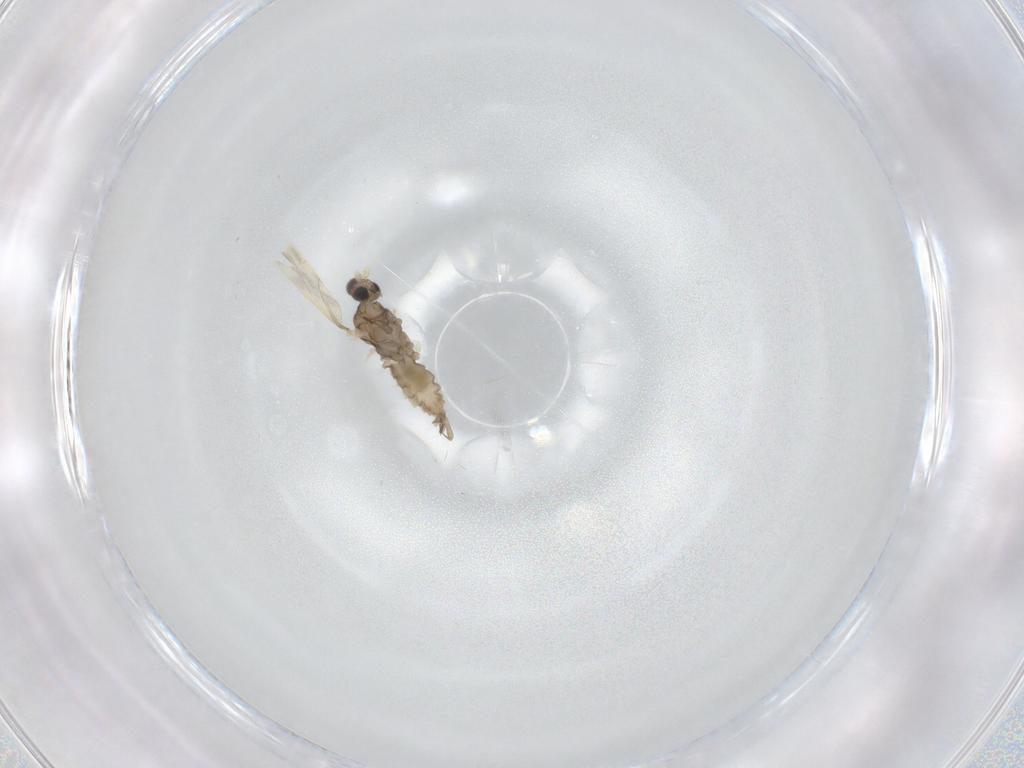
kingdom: Animalia
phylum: Arthropoda
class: Insecta
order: Diptera
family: Cecidomyiidae
